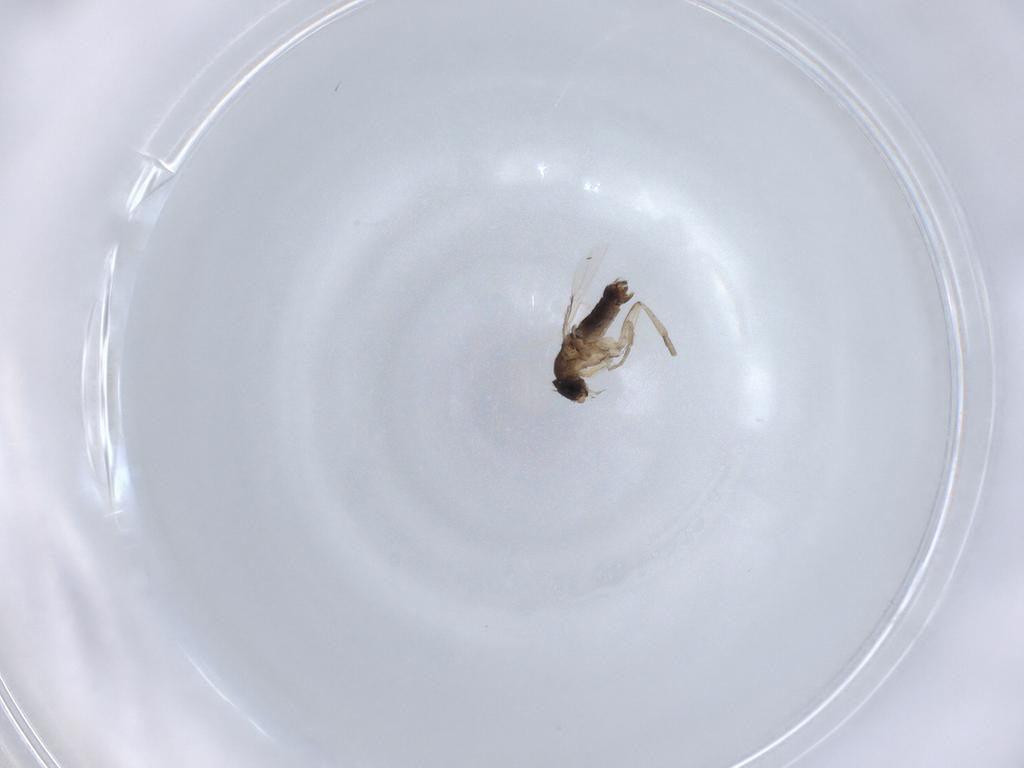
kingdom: Animalia
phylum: Arthropoda
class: Insecta
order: Diptera
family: Phoridae
